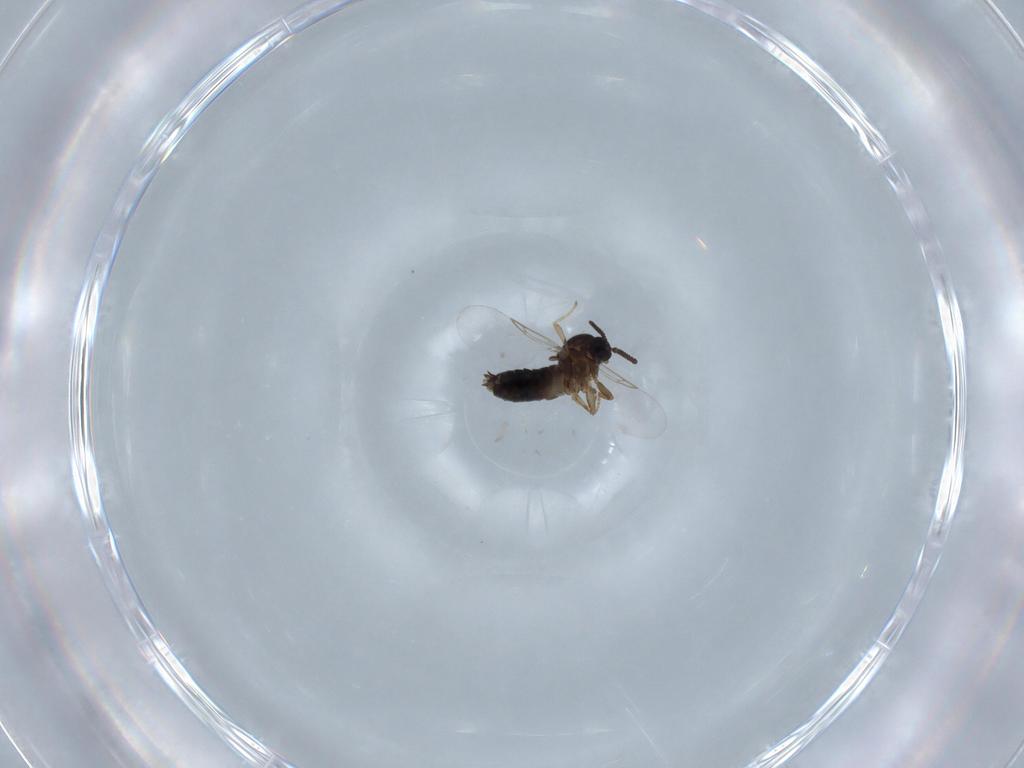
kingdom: Animalia
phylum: Arthropoda
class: Insecta
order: Diptera
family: Scatopsidae
